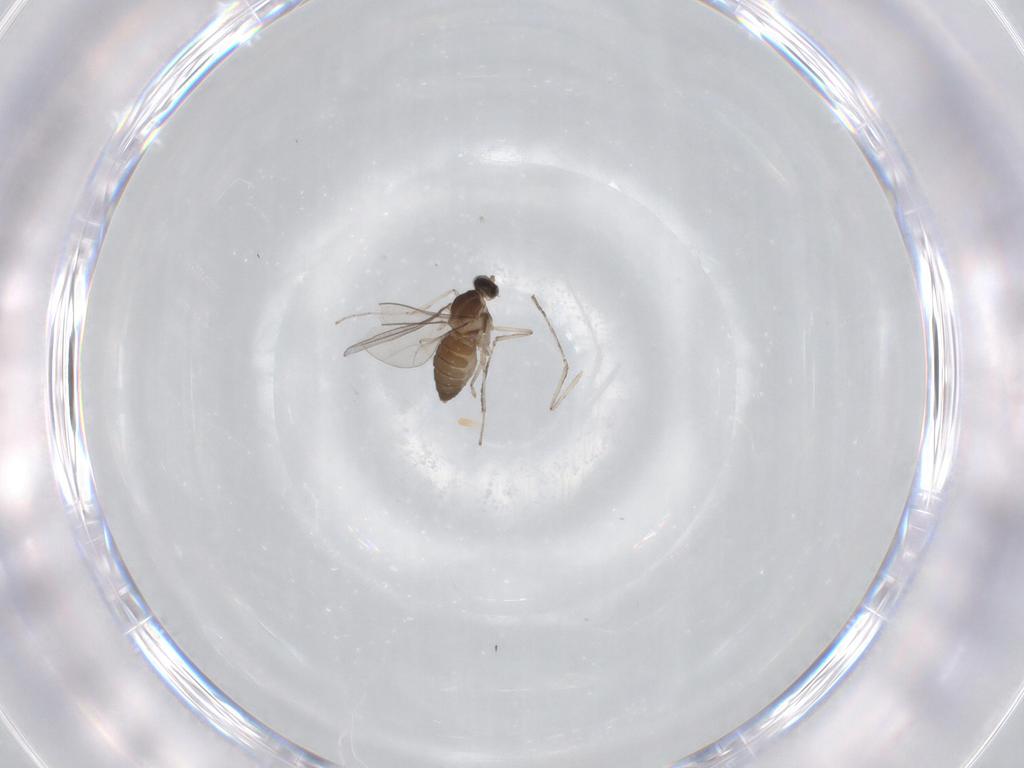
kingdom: Animalia
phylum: Arthropoda
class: Insecta
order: Diptera
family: Cecidomyiidae
